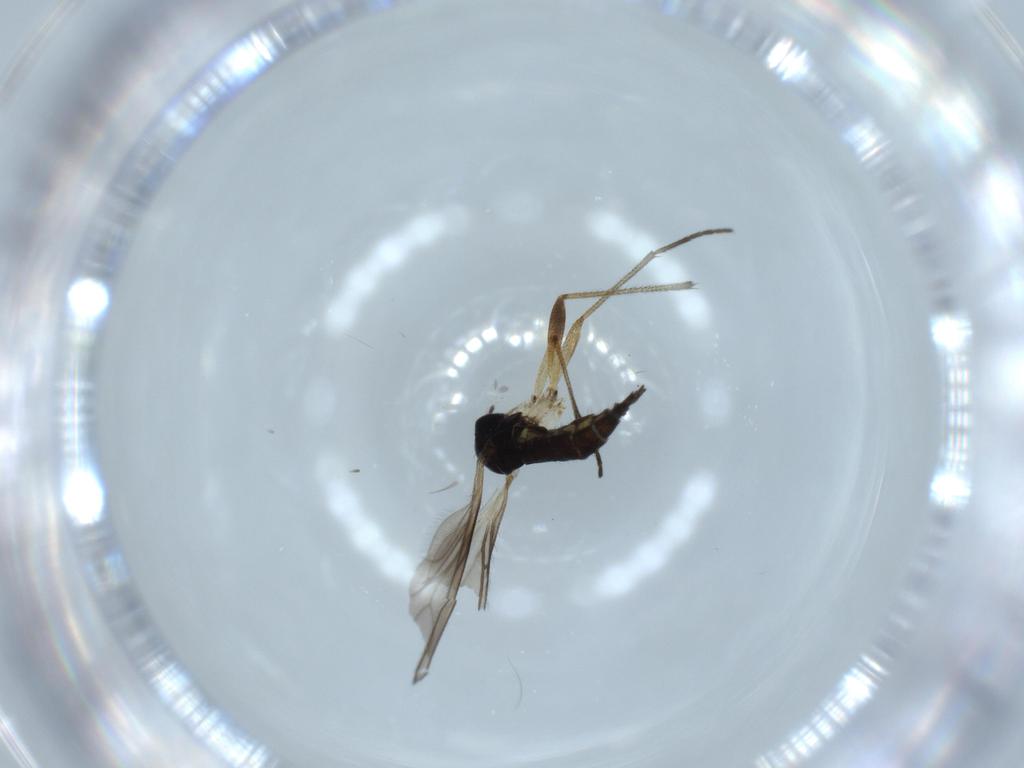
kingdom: Animalia
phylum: Arthropoda
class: Insecta
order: Diptera
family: Sciaridae
